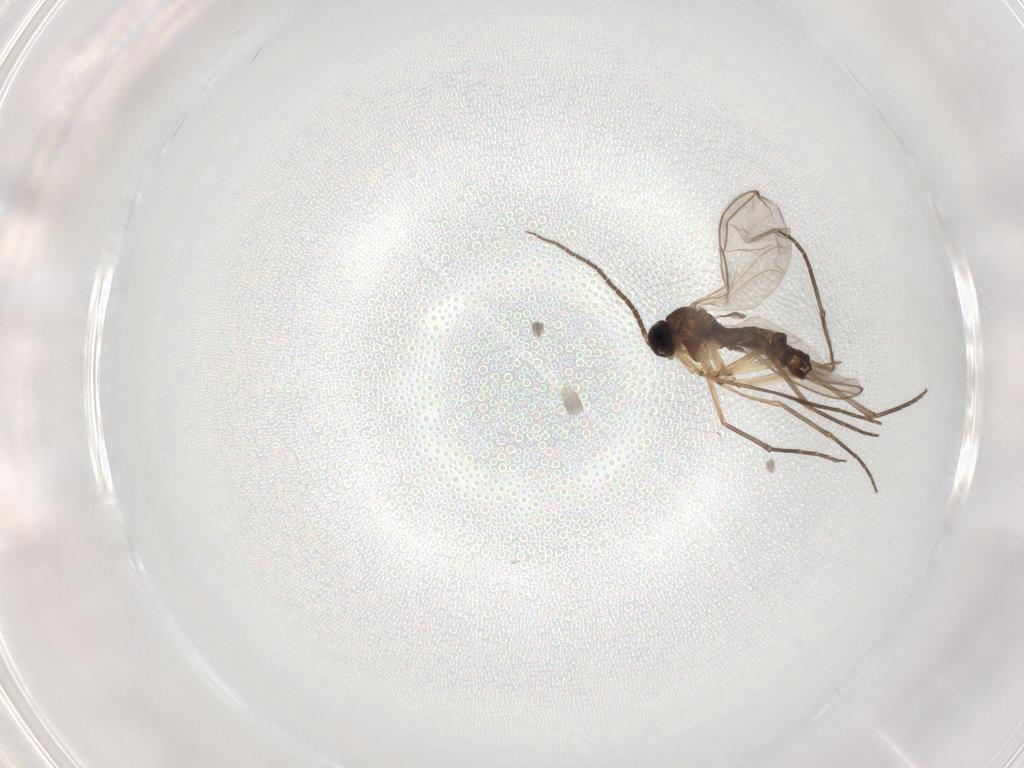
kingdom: Animalia
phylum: Arthropoda
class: Insecta
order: Diptera
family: Sciaridae
